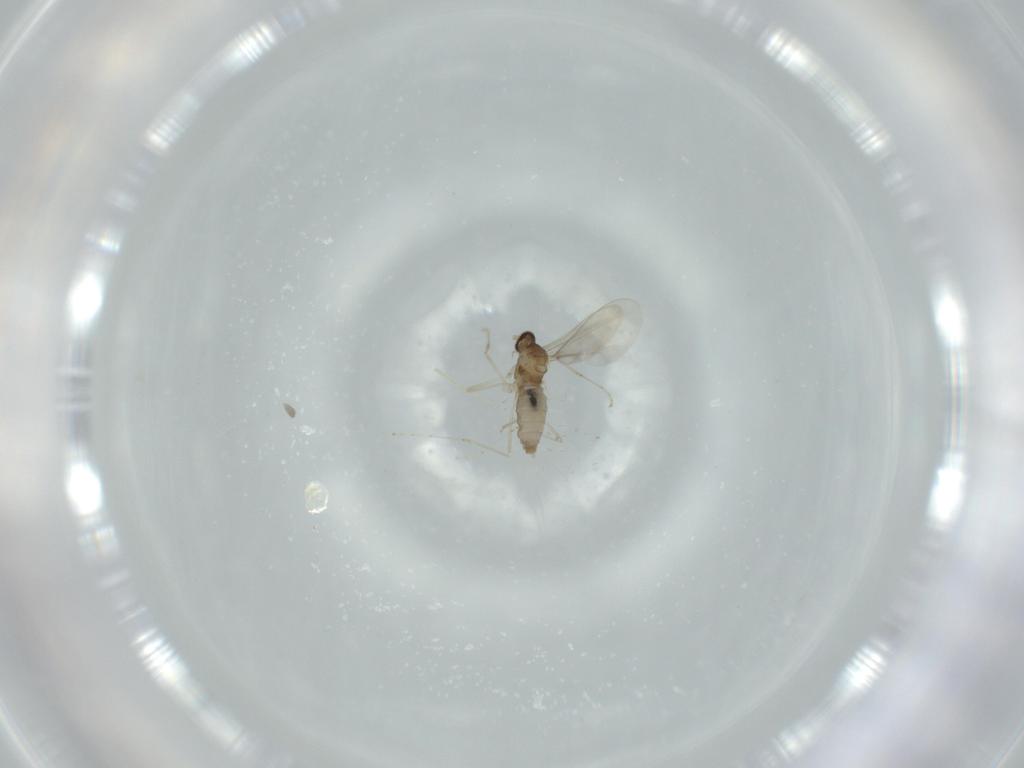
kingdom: Animalia
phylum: Arthropoda
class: Insecta
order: Diptera
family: Cecidomyiidae
